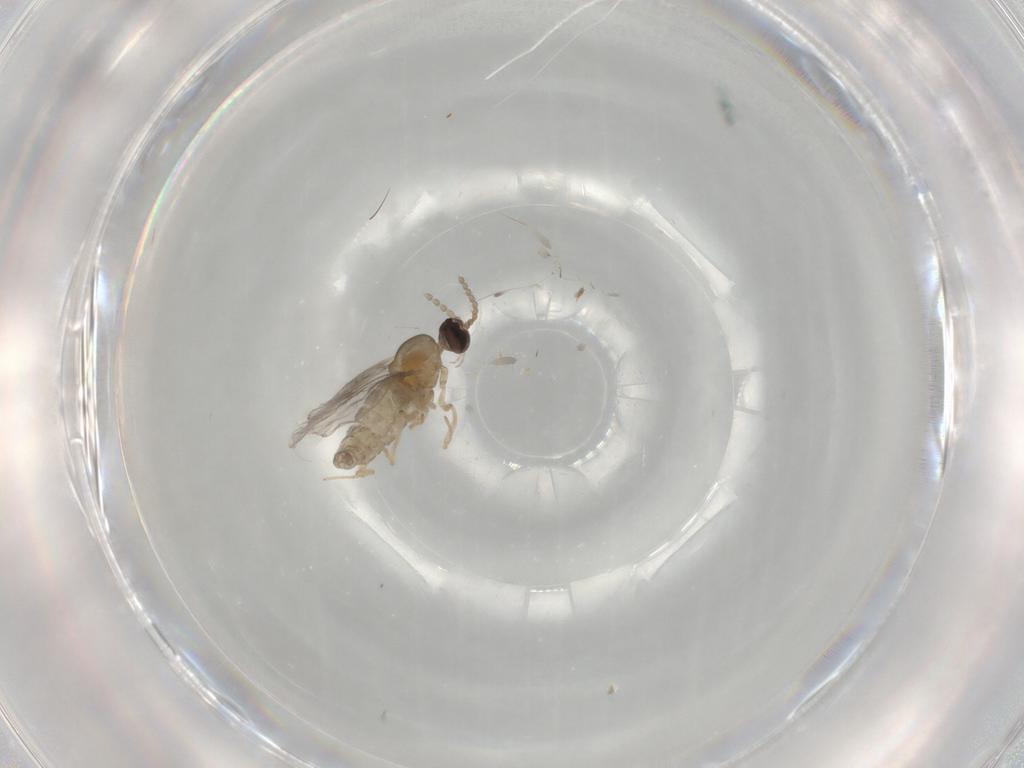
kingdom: Animalia
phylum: Arthropoda
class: Insecta
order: Diptera
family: Cecidomyiidae
